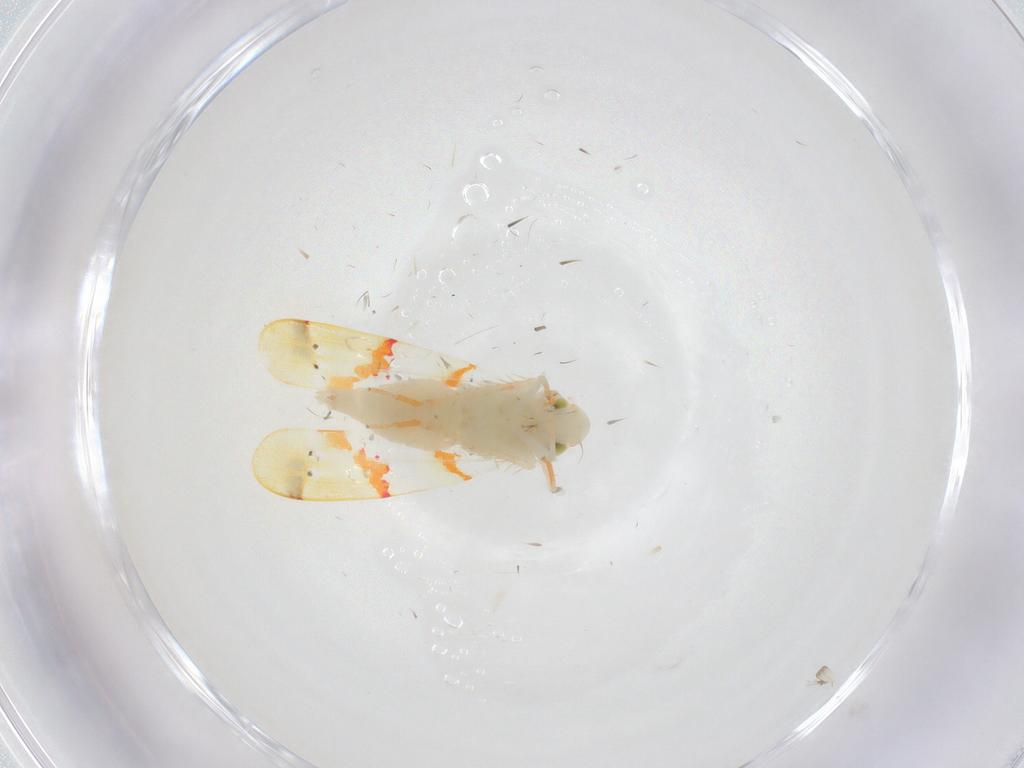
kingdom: Animalia
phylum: Arthropoda
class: Insecta
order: Hemiptera
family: Cicadellidae
